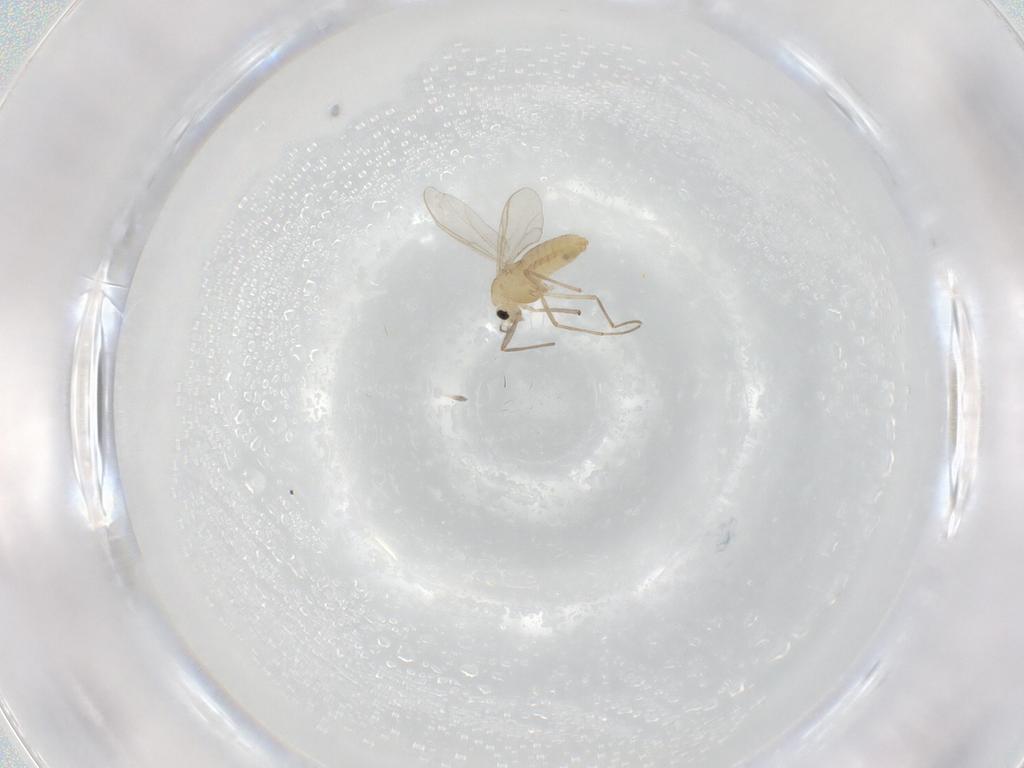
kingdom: Animalia
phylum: Arthropoda
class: Insecta
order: Diptera
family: Chironomidae
